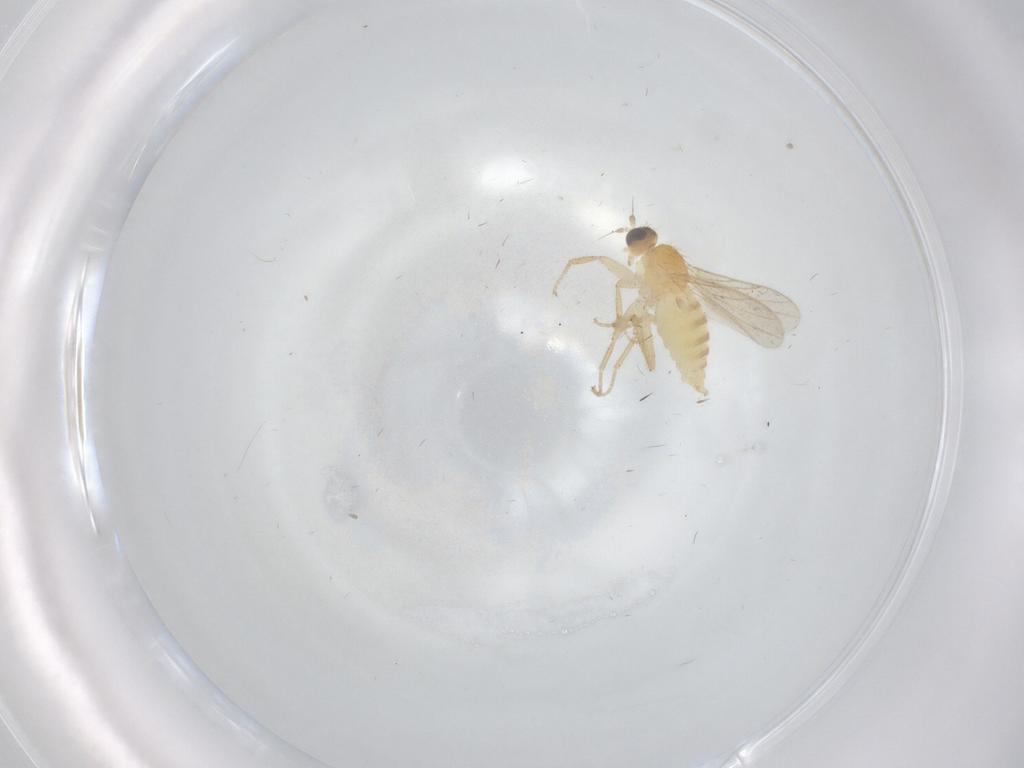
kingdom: Animalia
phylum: Arthropoda
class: Insecta
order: Diptera
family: Hybotidae
